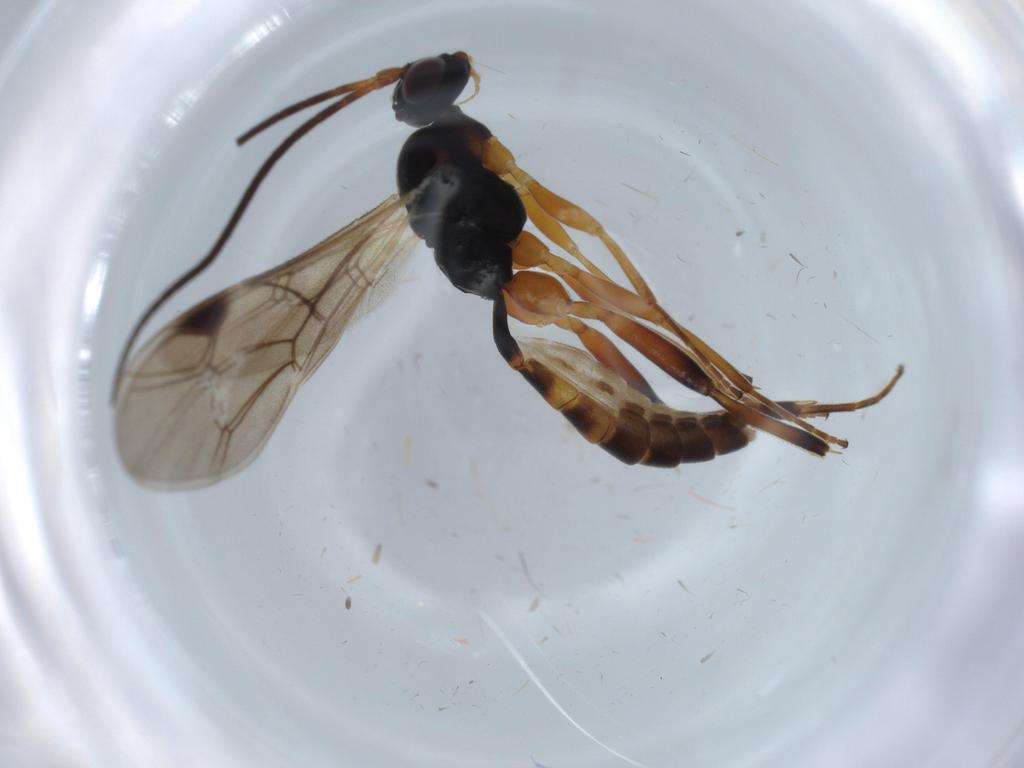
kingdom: Animalia
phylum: Arthropoda
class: Insecta
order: Hymenoptera
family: Ichneumonidae
